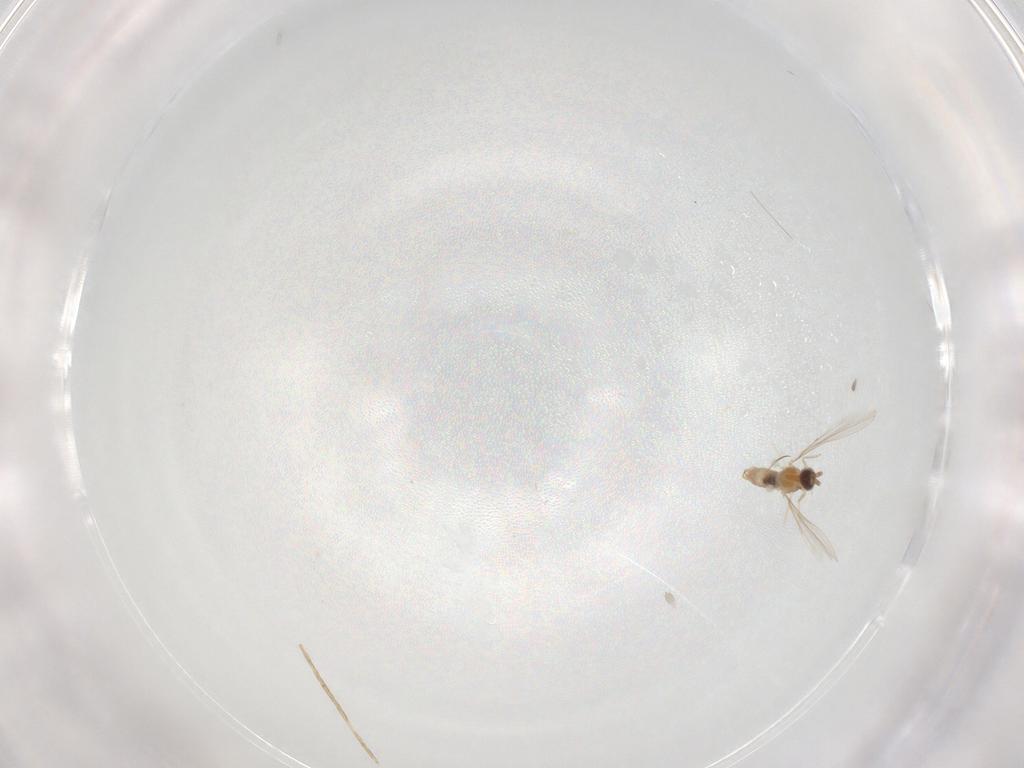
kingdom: Animalia
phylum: Arthropoda
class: Insecta
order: Diptera
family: Cecidomyiidae
